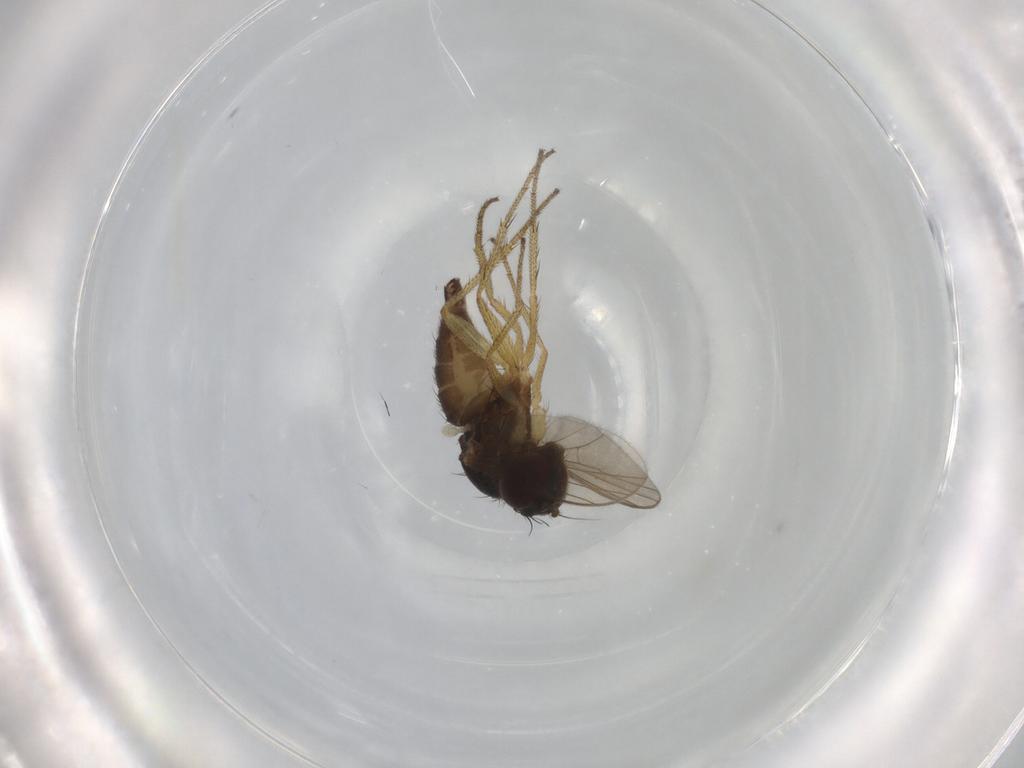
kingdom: Animalia
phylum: Arthropoda
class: Insecta
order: Diptera
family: Dolichopodidae
